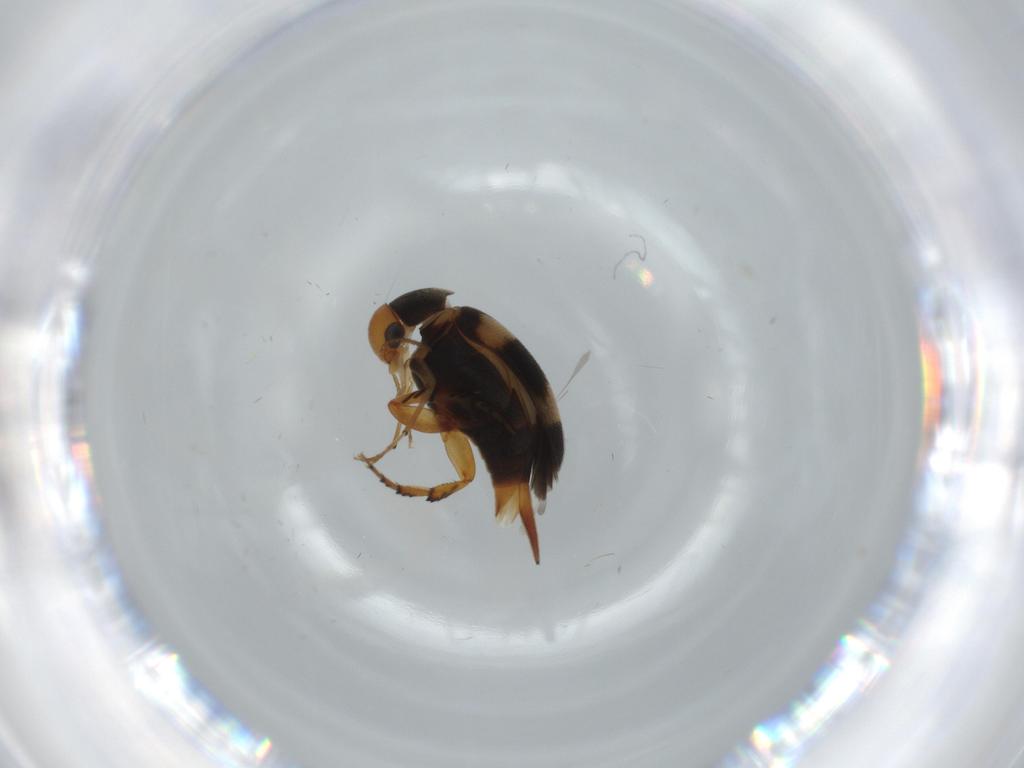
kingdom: Animalia
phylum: Arthropoda
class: Insecta
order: Coleoptera
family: Mordellidae
